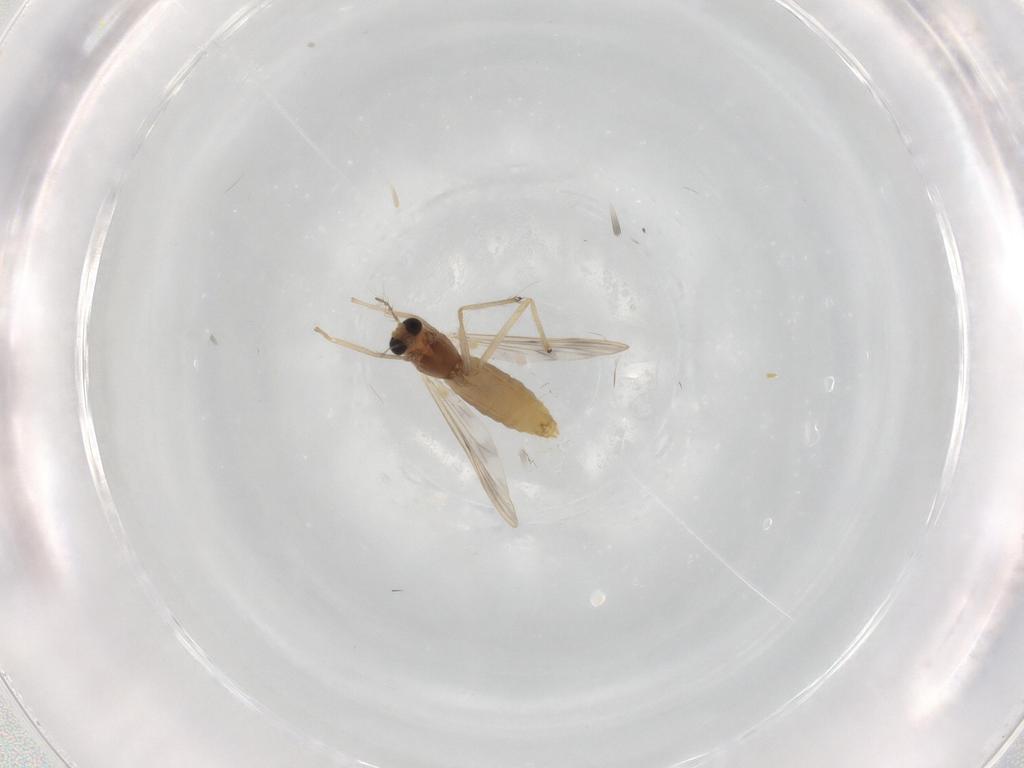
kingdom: Animalia
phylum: Arthropoda
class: Insecta
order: Diptera
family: Chironomidae
